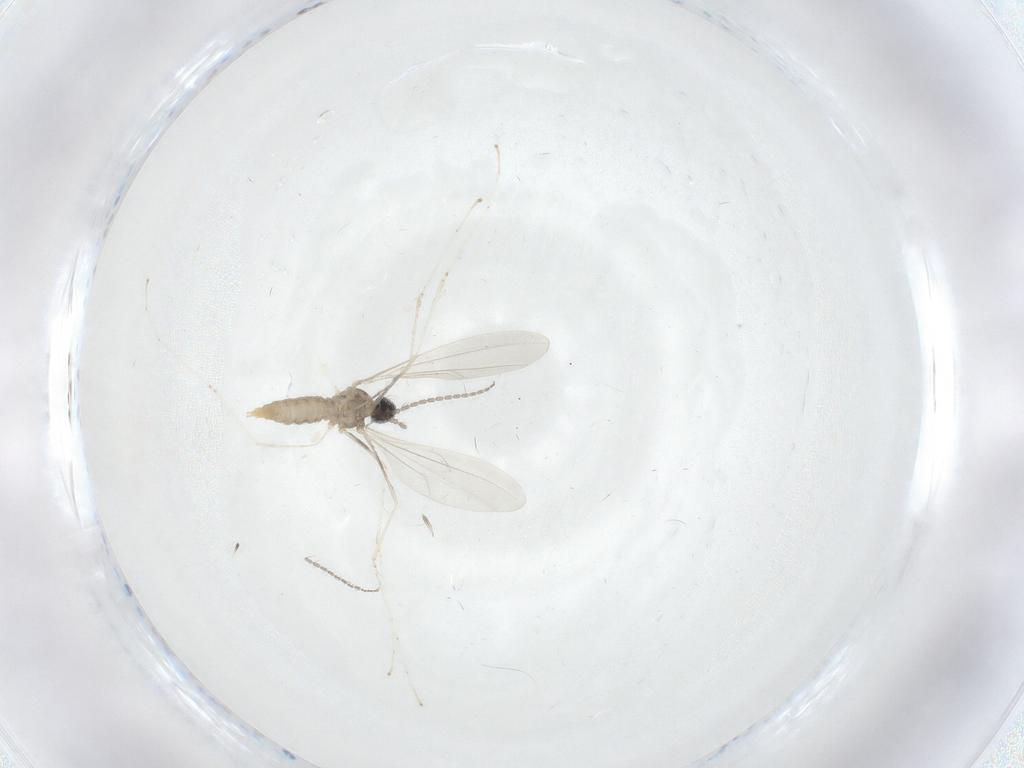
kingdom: Animalia
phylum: Arthropoda
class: Insecta
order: Diptera
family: Cecidomyiidae
